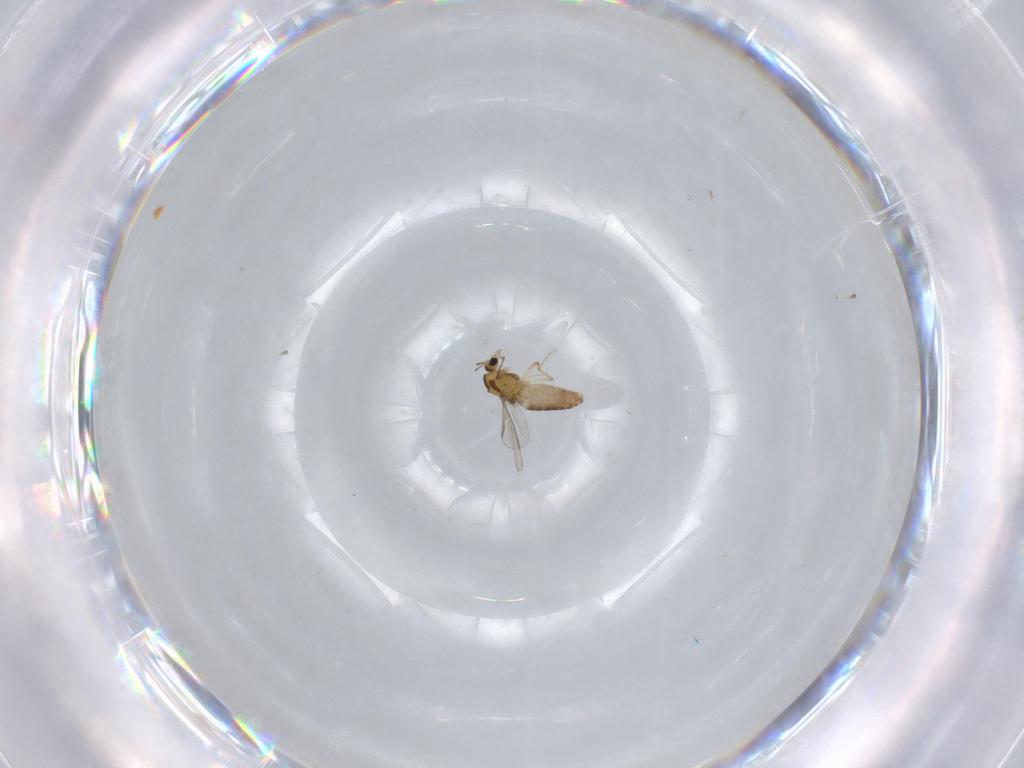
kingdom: Animalia
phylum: Arthropoda
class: Insecta
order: Diptera
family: Chironomidae
